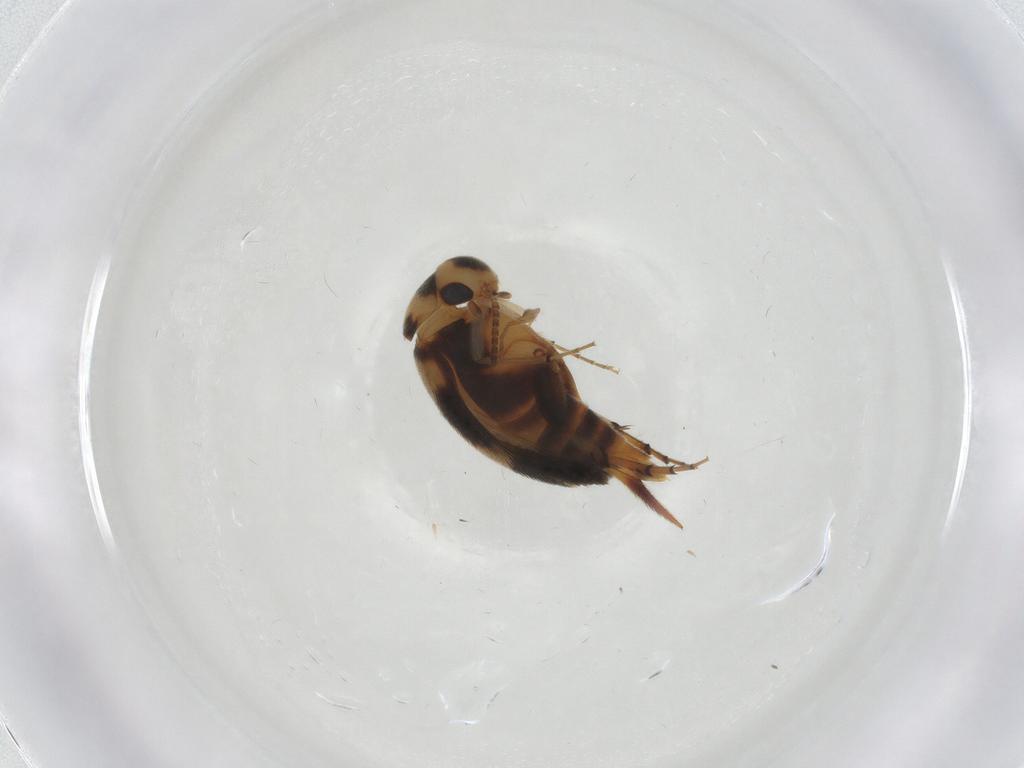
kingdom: Animalia
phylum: Arthropoda
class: Insecta
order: Coleoptera
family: Mordellidae
